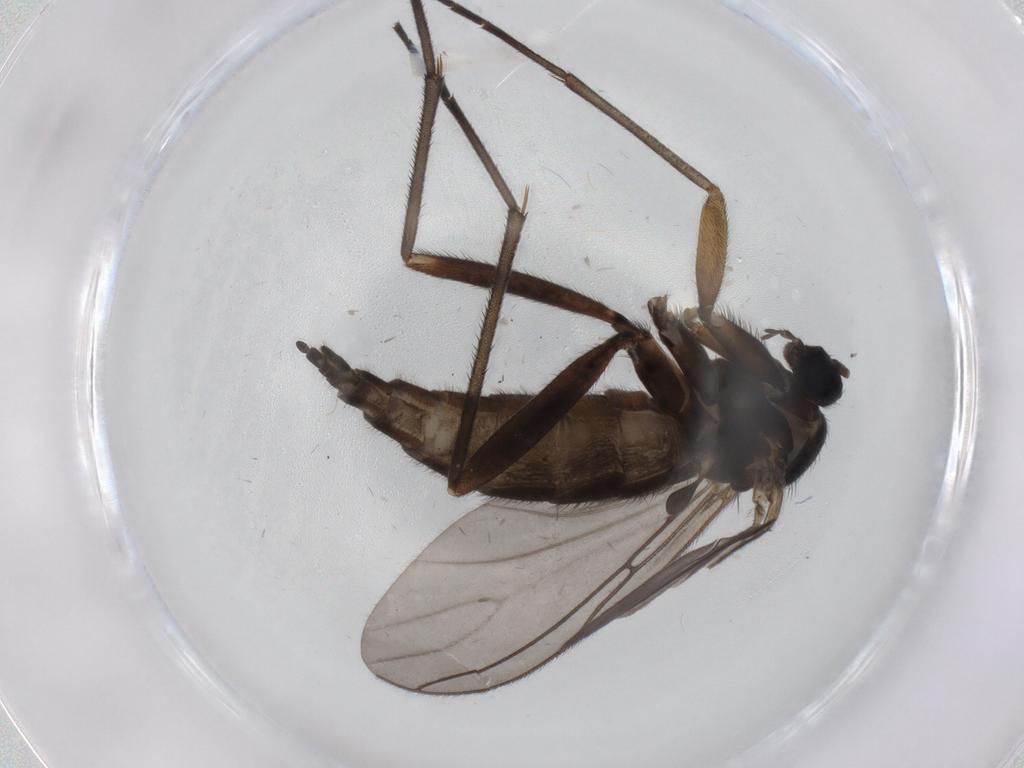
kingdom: Animalia
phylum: Arthropoda
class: Insecta
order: Diptera
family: Sciaridae
